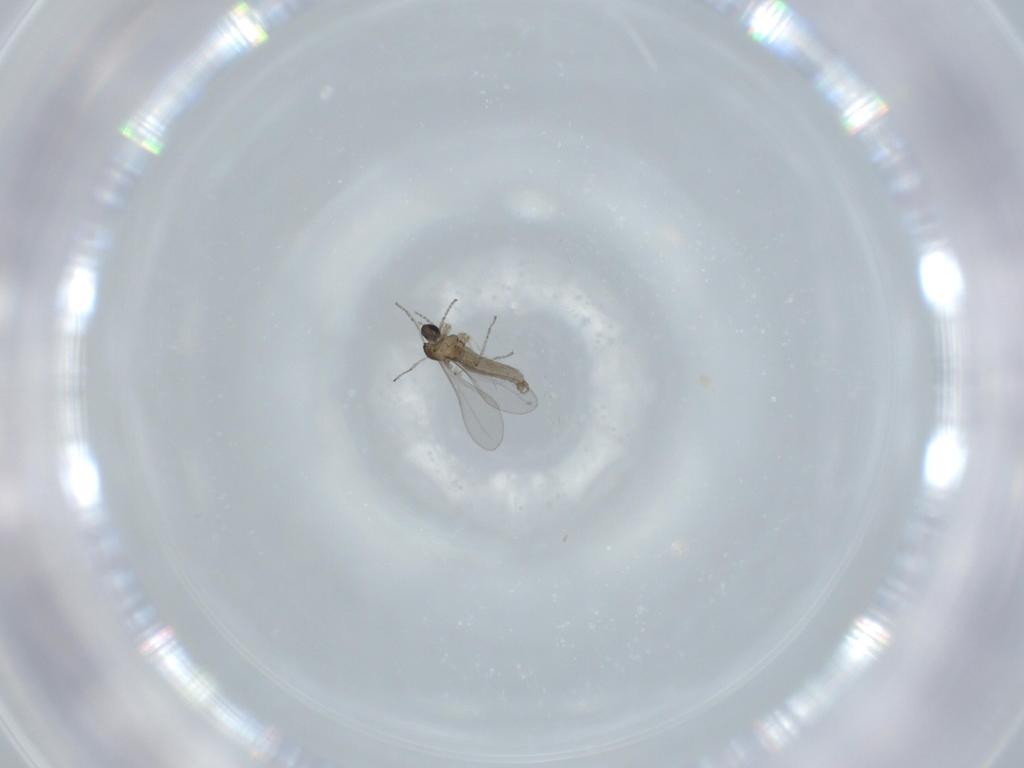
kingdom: Animalia
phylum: Arthropoda
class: Insecta
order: Diptera
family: Cecidomyiidae
